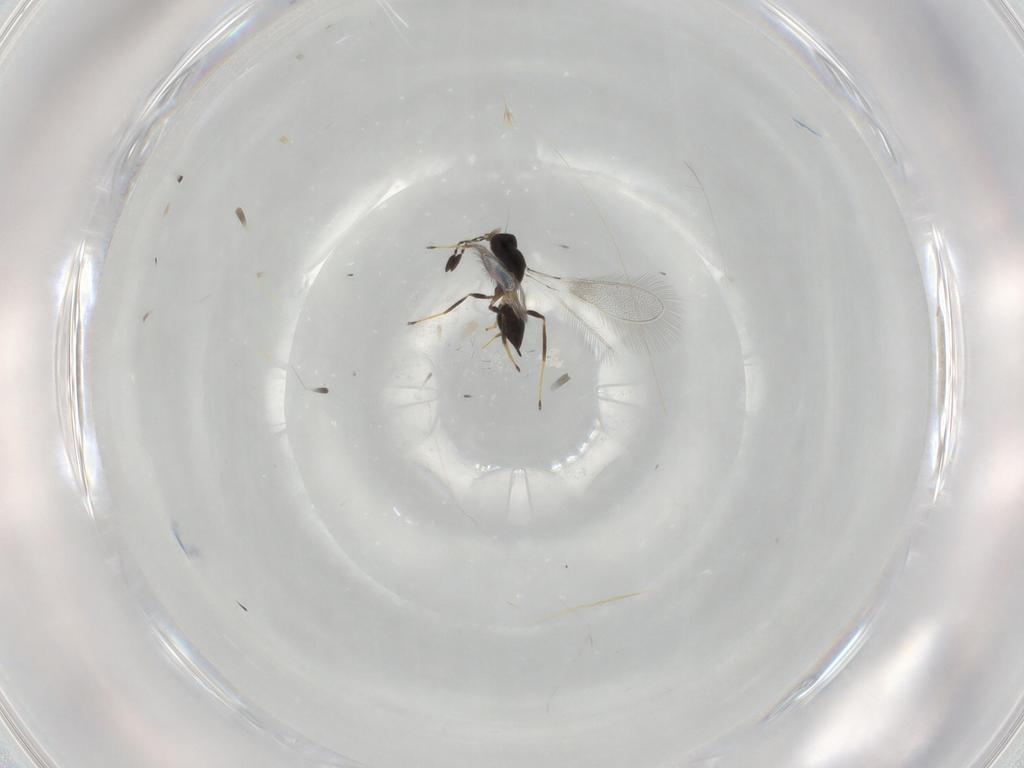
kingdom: Animalia
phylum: Arthropoda
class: Insecta
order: Hymenoptera
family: Mymaridae
